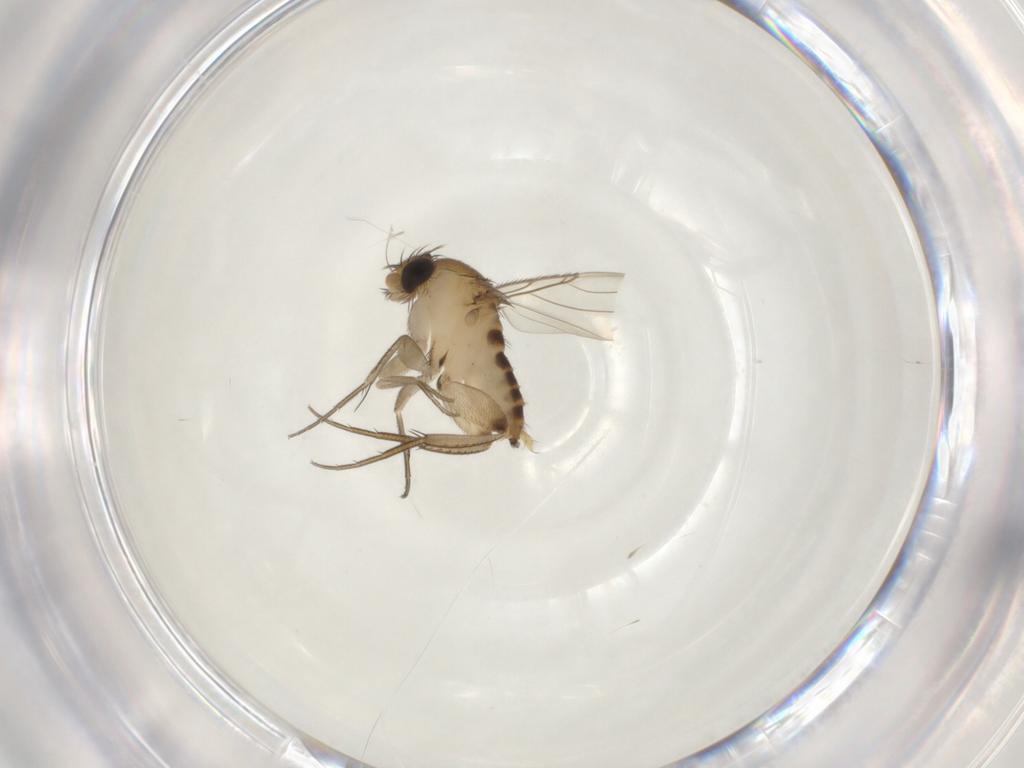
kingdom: Animalia
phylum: Arthropoda
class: Insecta
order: Diptera
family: Phoridae
